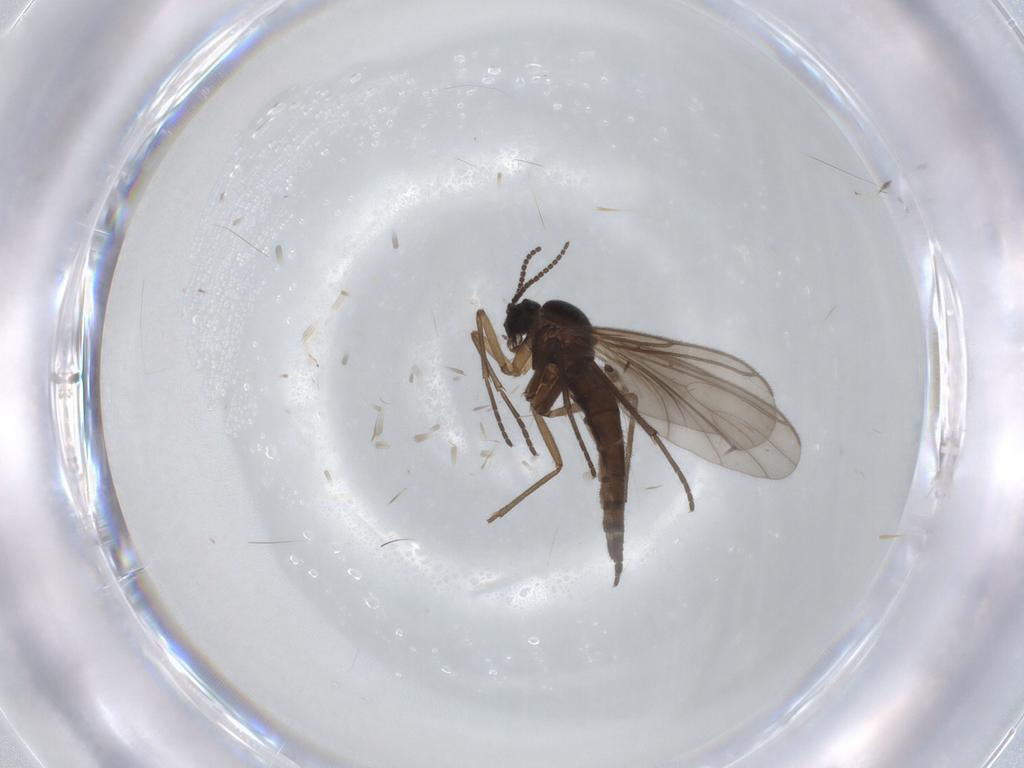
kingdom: Animalia
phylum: Arthropoda
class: Insecta
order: Diptera
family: Sciaridae
